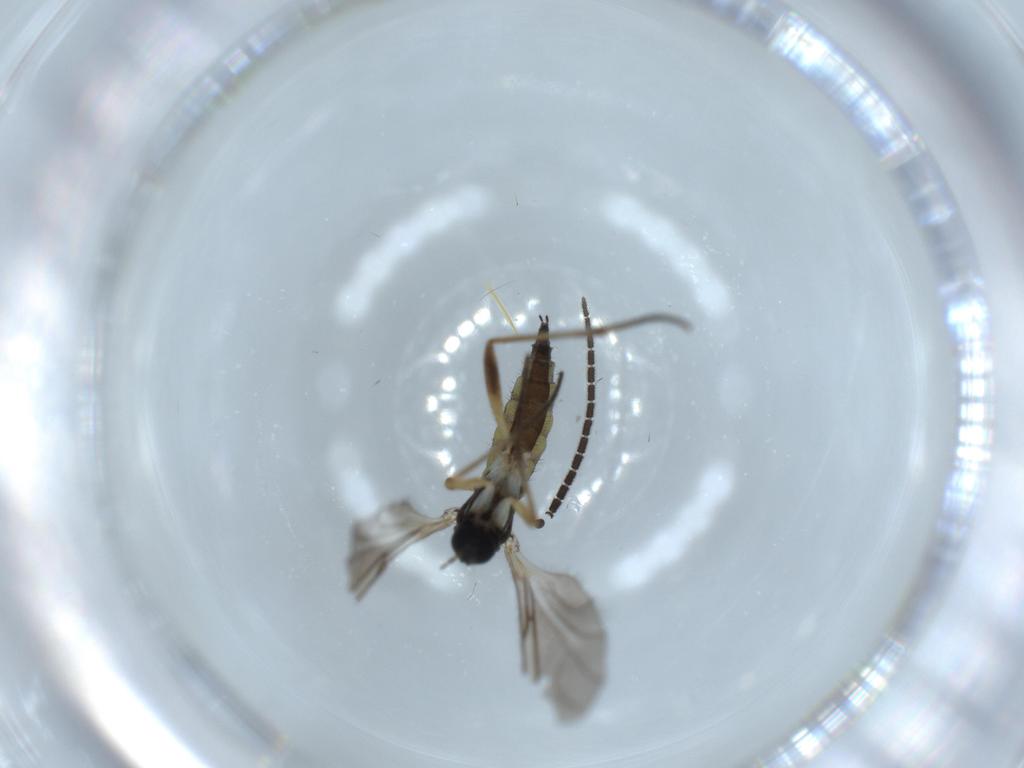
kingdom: Animalia
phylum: Arthropoda
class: Insecta
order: Diptera
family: Sciaridae
